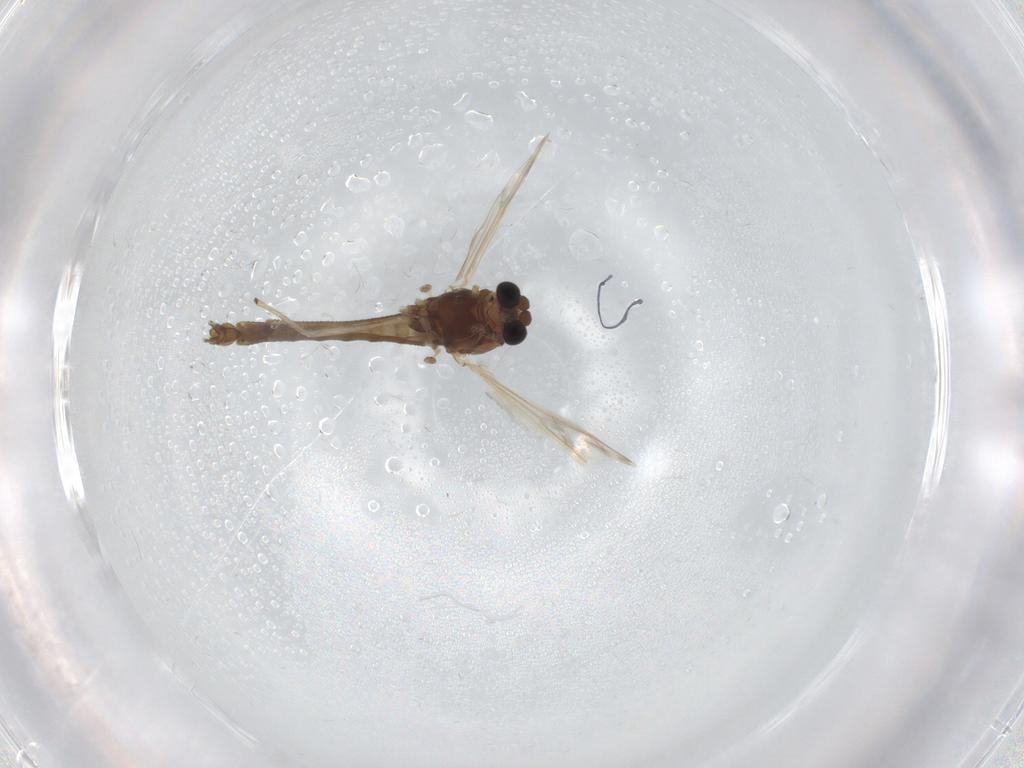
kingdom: Animalia
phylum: Arthropoda
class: Insecta
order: Diptera
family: Chironomidae
